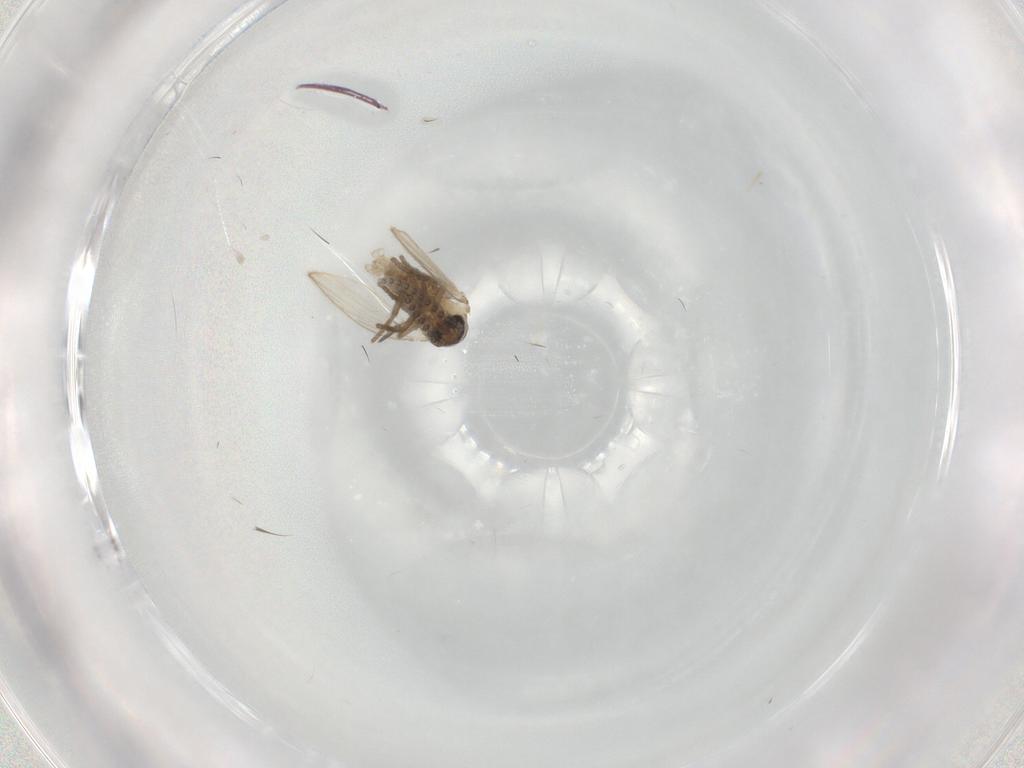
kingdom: Animalia
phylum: Arthropoda
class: Insecta
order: Diptera
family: Psychodidae
